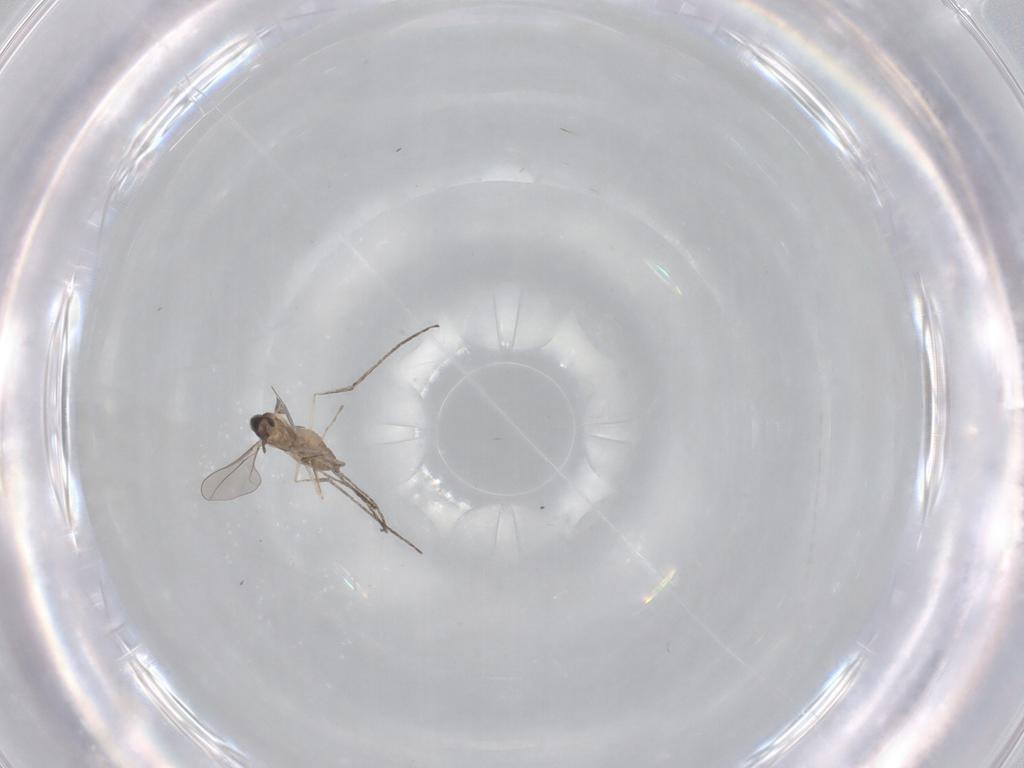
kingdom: Animalia
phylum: Arthropoda
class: Insecta
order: Diptera
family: Cecidomyiidae
